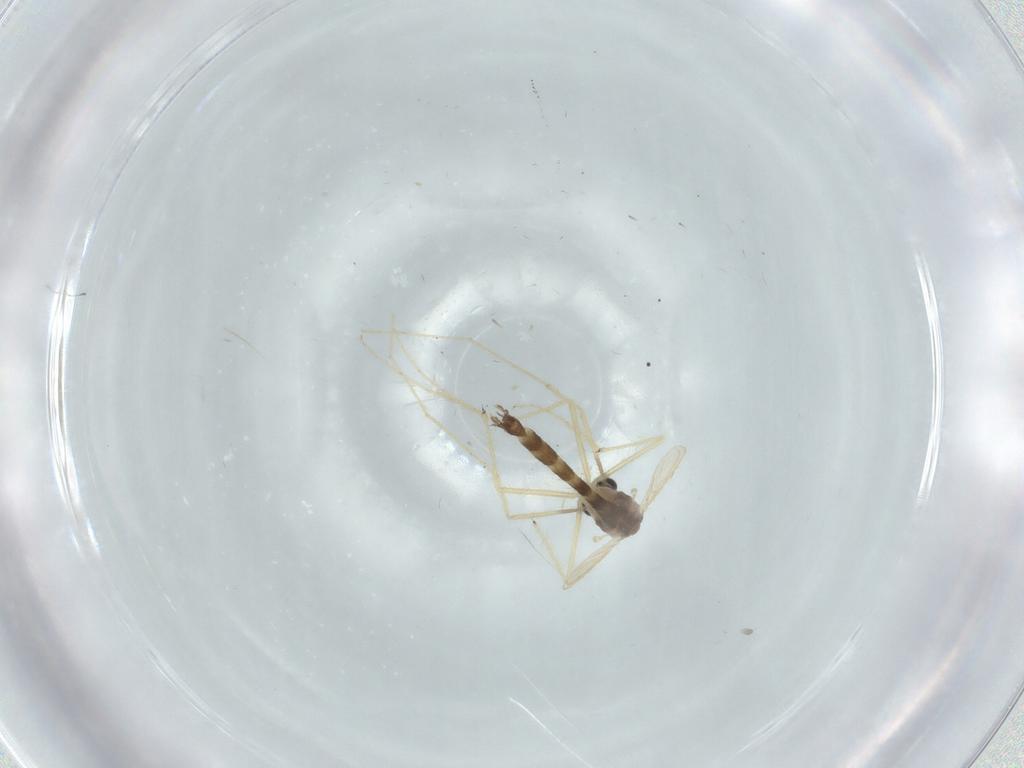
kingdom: Animalia
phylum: Arthropoda
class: Insecta
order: Diptera
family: Chironomidae
